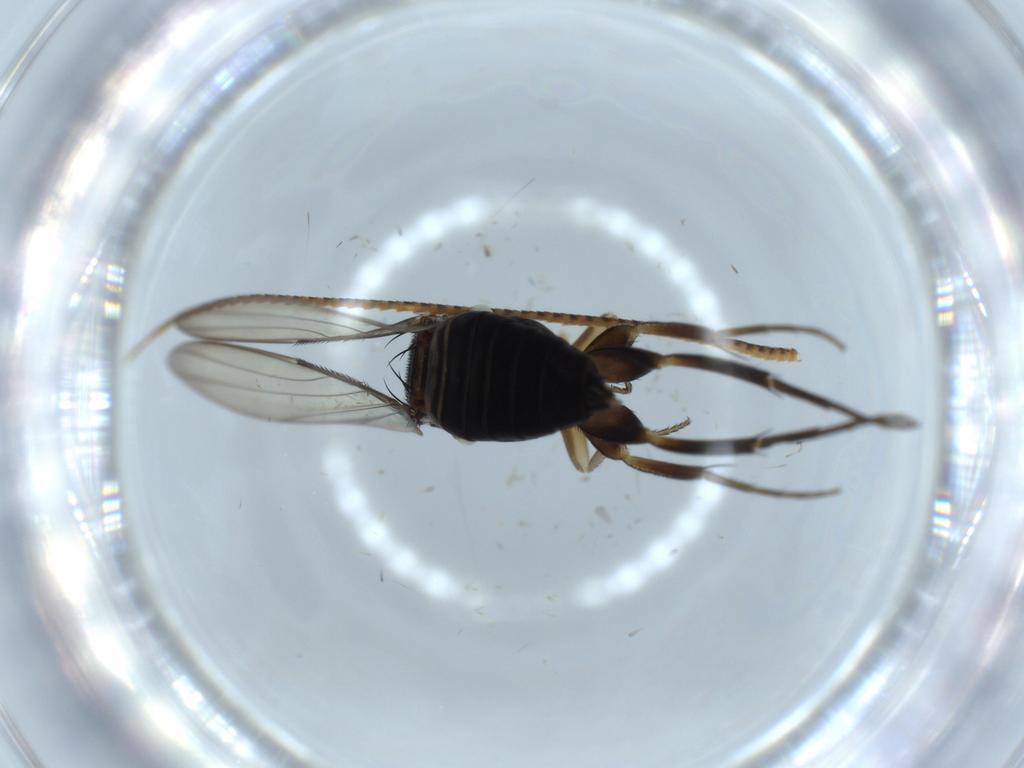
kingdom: Animalia
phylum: Arthropoda
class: Insecta
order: Diptera
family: Phoridae
